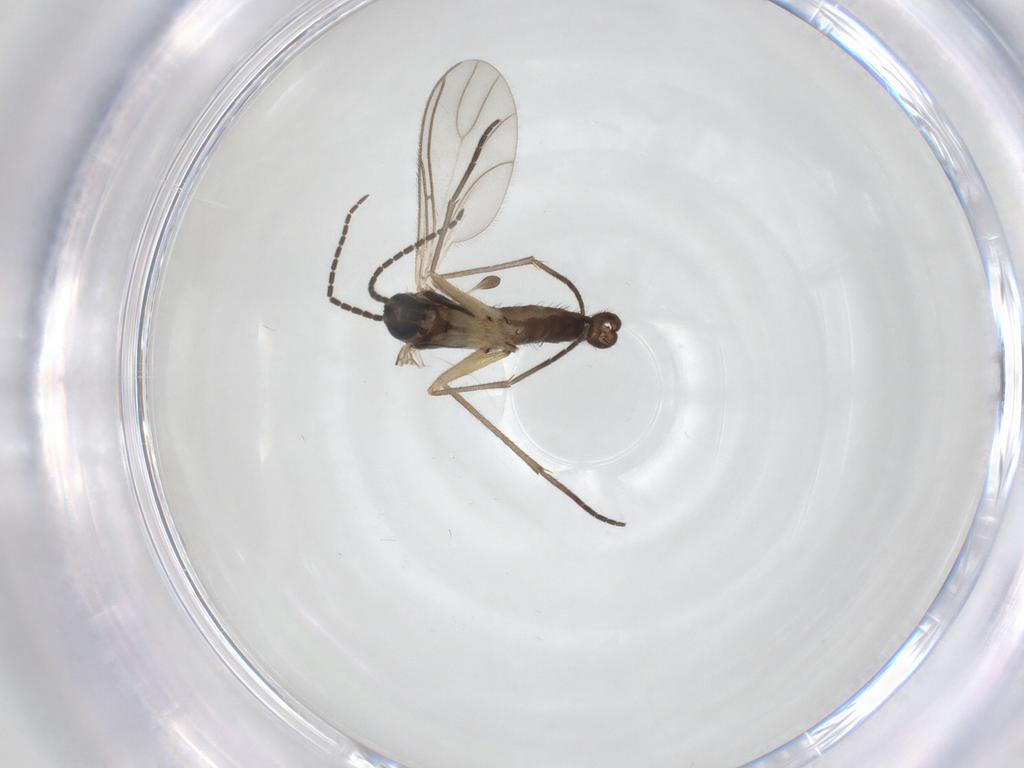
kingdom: Animalia
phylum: Arthropoda
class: Insecta
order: Diptera
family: Sciaridae
